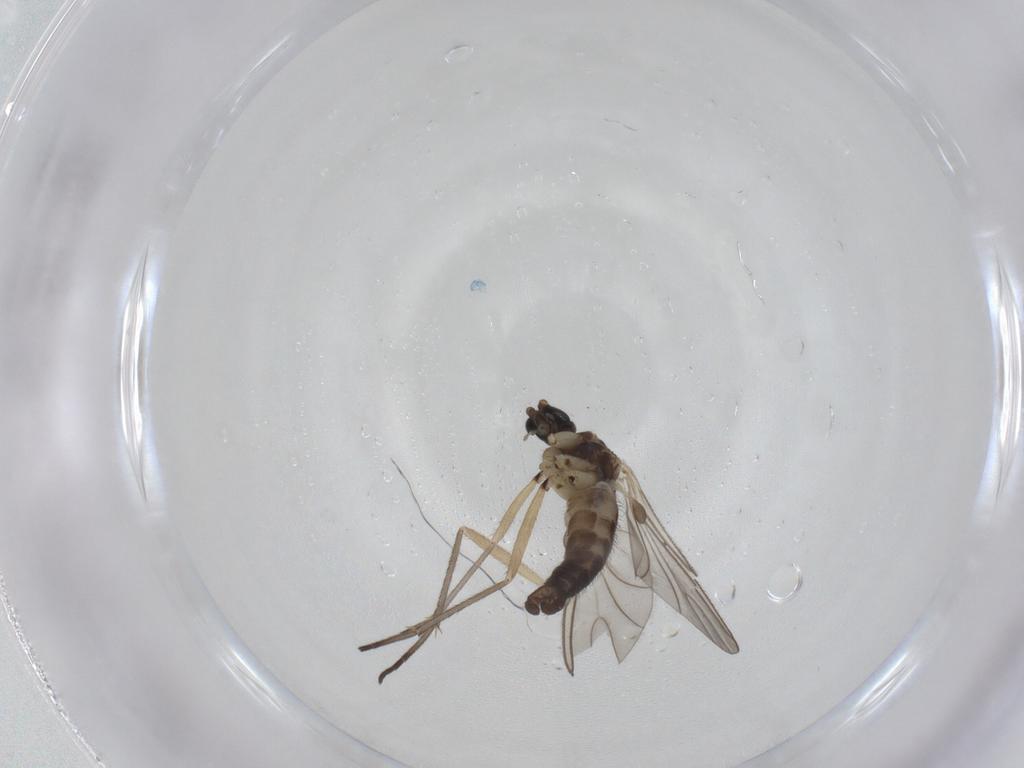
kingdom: Animalia
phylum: Arthropoda
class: Insecta
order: Diptera
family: Sciaridae
